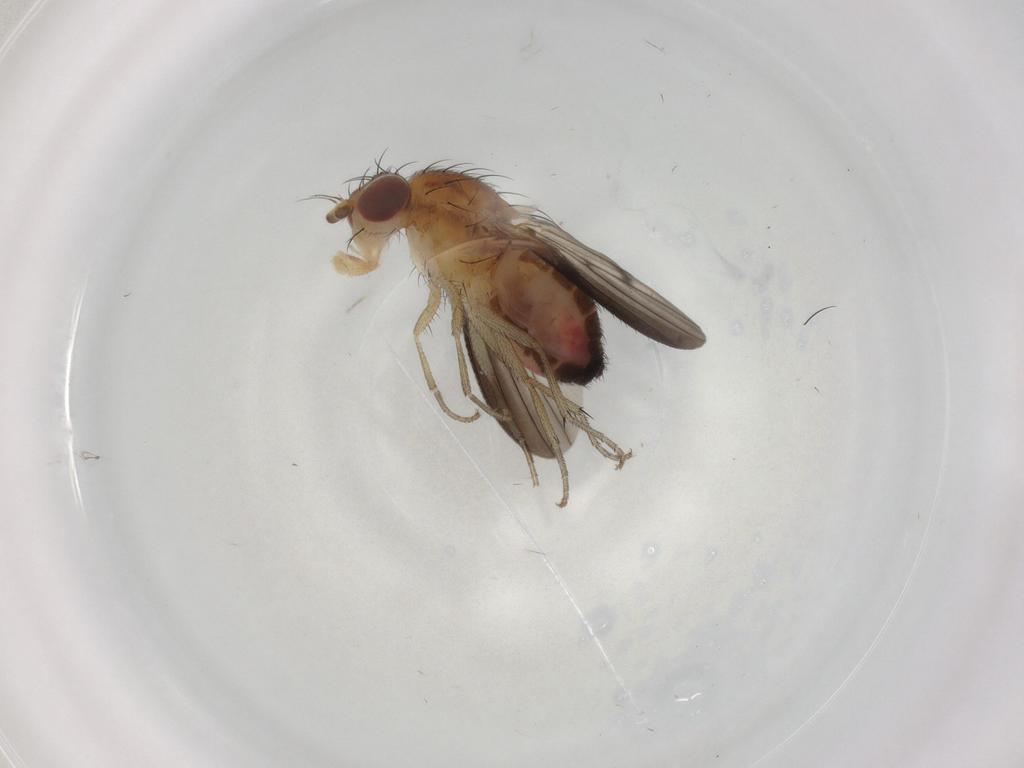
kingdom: Animalia
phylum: Arthropoda
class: Insecta
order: Diptera
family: Heleomyzidae
